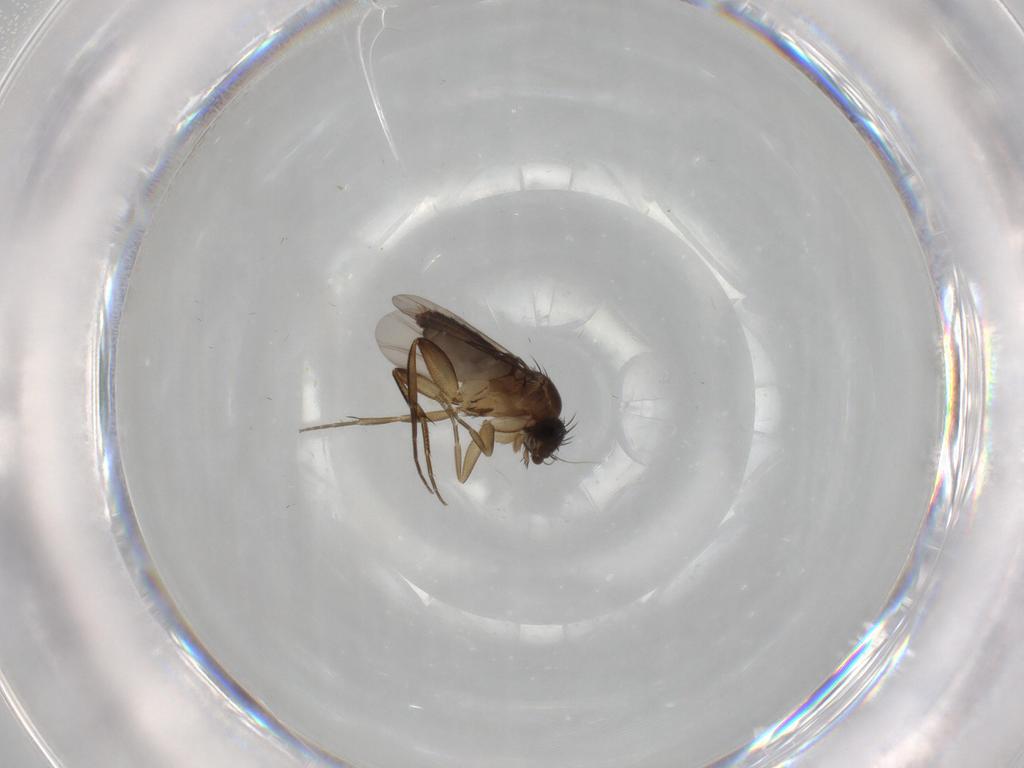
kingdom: Animalia
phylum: Arthropoda
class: Insecta
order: Diptera
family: Phoridae
